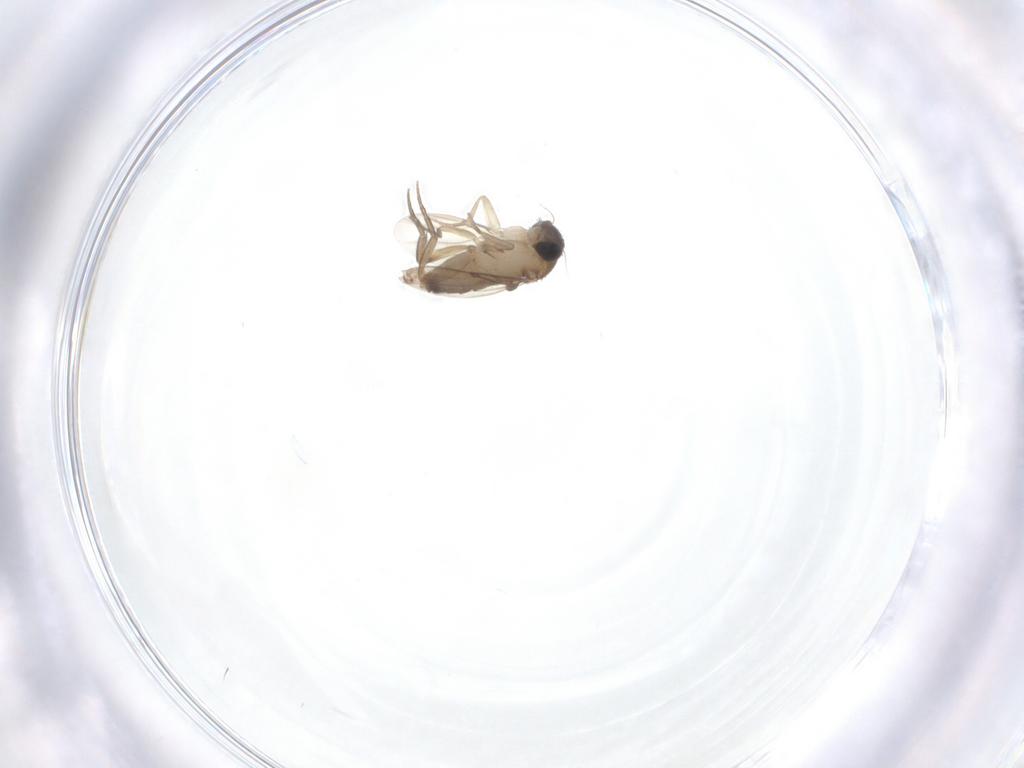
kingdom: Animalia
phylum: Arthropoda
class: Insecta
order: Diptera
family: Phoridae
